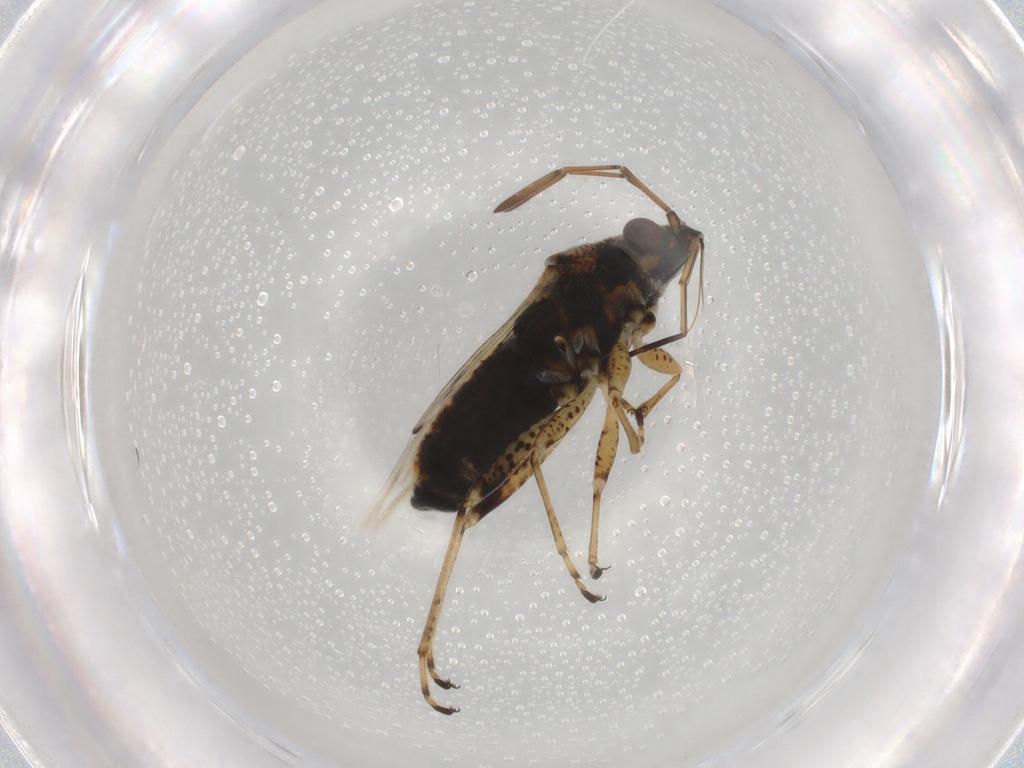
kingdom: Animalia
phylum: Arthropoda
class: Insecta
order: Hemiptera
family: Lygaeidae
